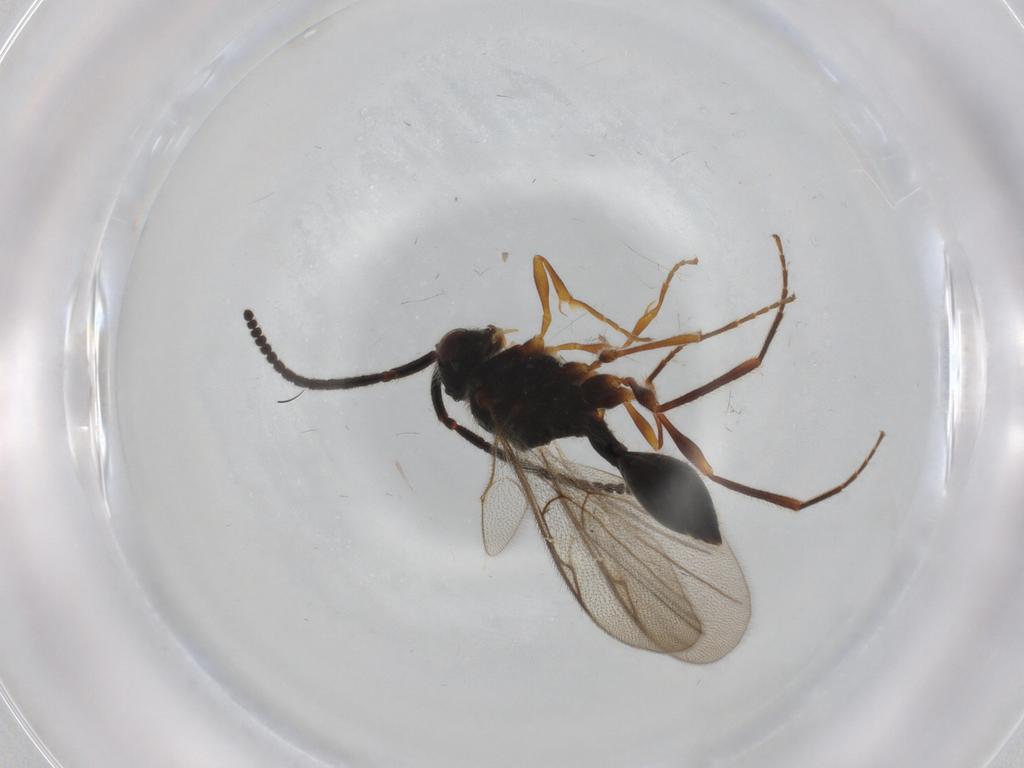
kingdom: Animalia
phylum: Arthropoda
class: Insecta
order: Hymenoptera
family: Diapriidae
